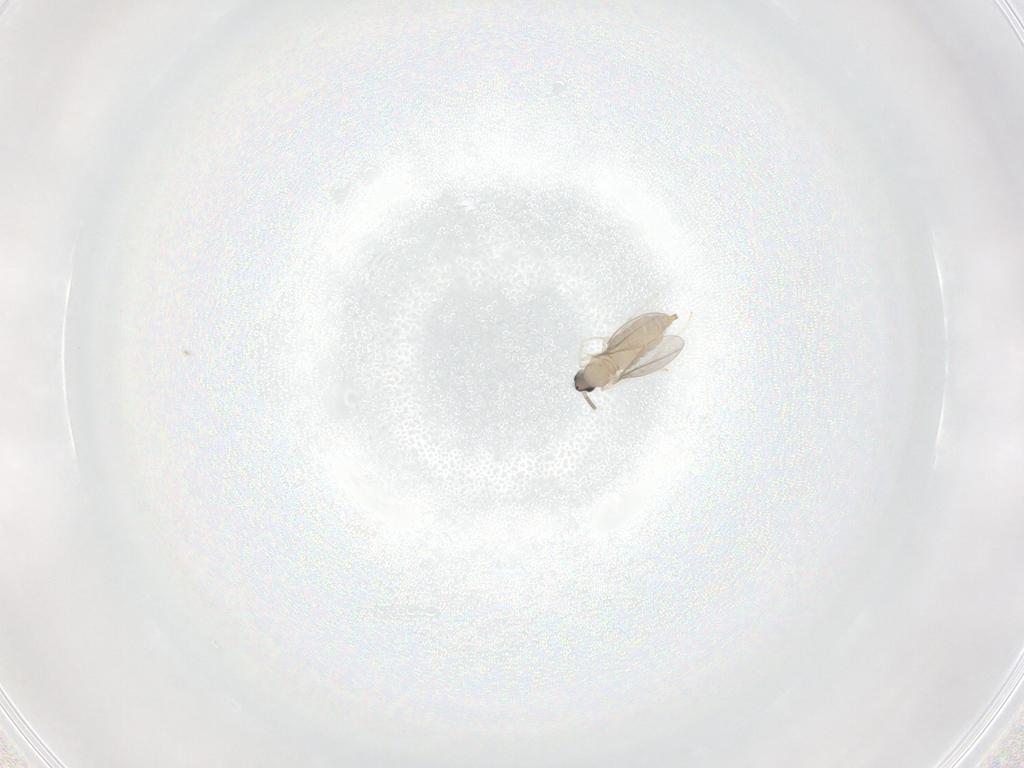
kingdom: Animalia
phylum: Arthropoda
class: Insecta
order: Diptera
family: Cecidomyiidae
